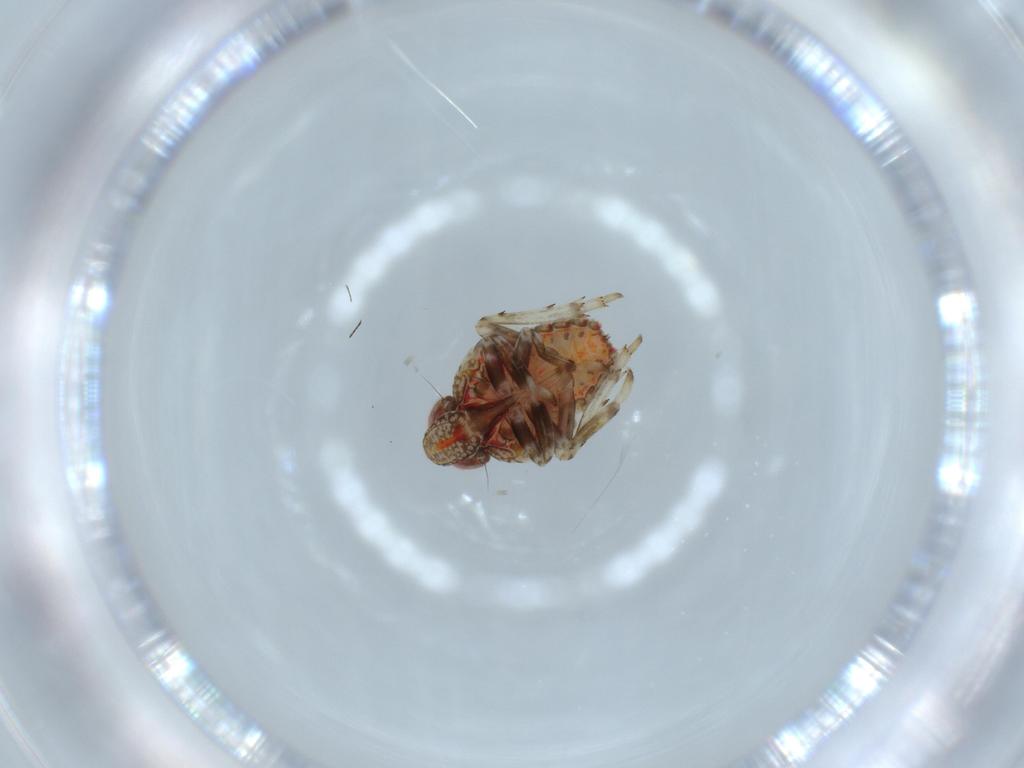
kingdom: Animalia
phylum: Arthropoda
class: Insecta
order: Hemiptera
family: Issidae
